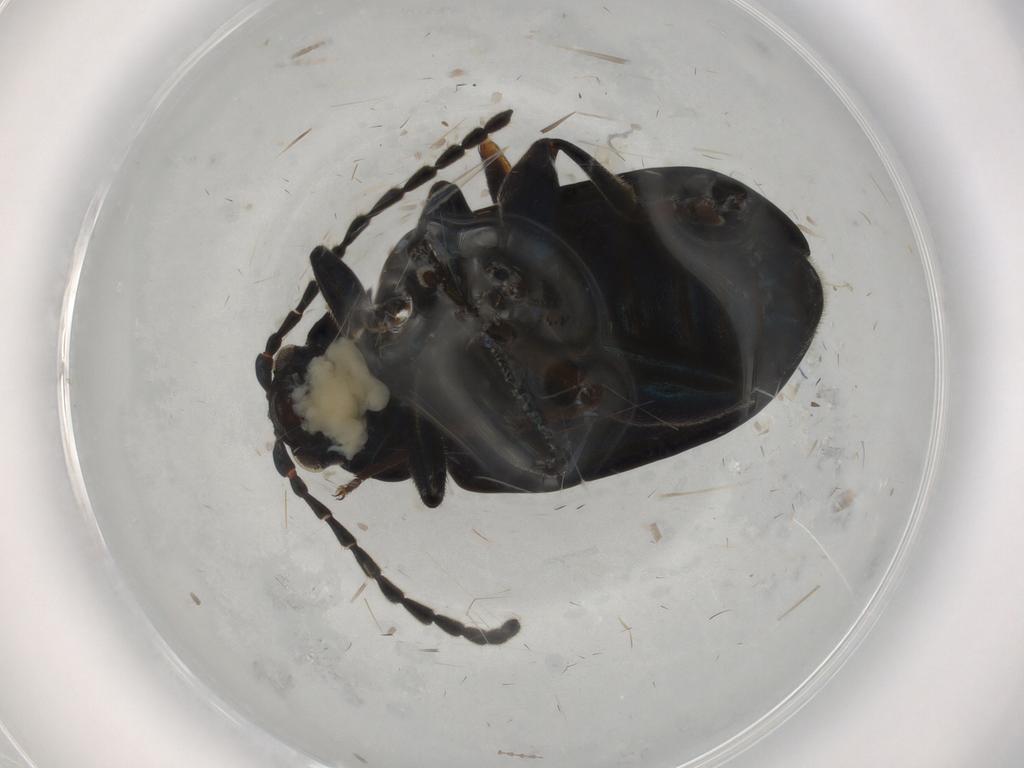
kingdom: Animalia
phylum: Arthropoda
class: Insecta
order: Coleoptera
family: Chrysomelidae
